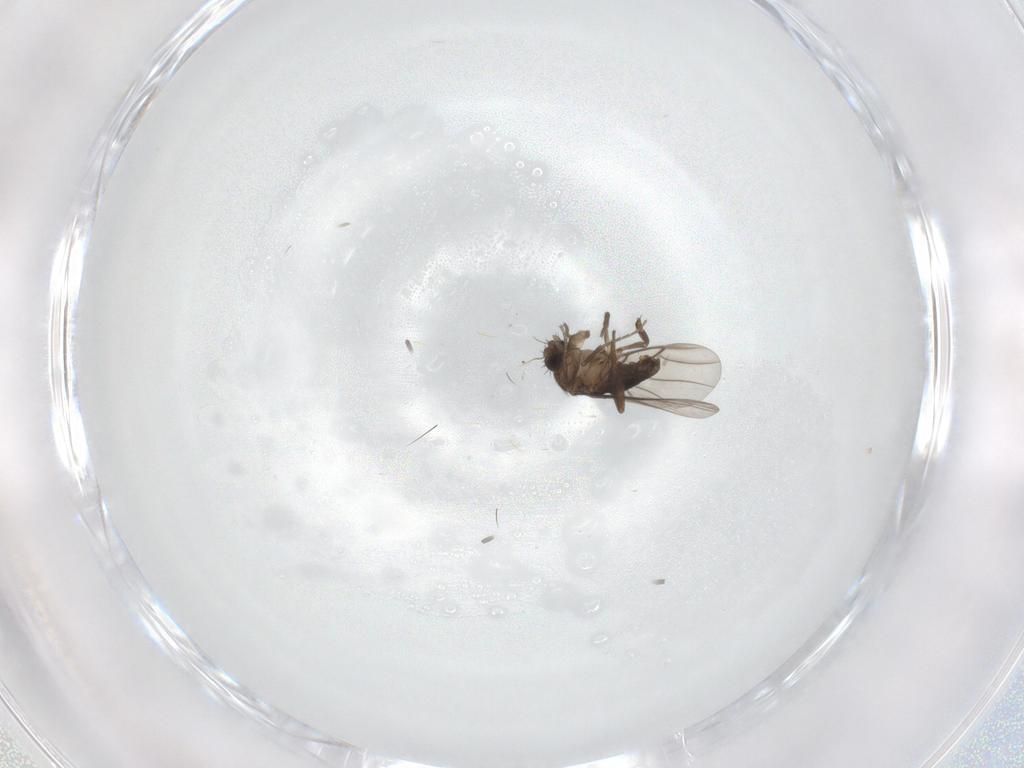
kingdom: Animalia
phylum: Arthropoda
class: Insecta
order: Diptera
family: Phoridae
